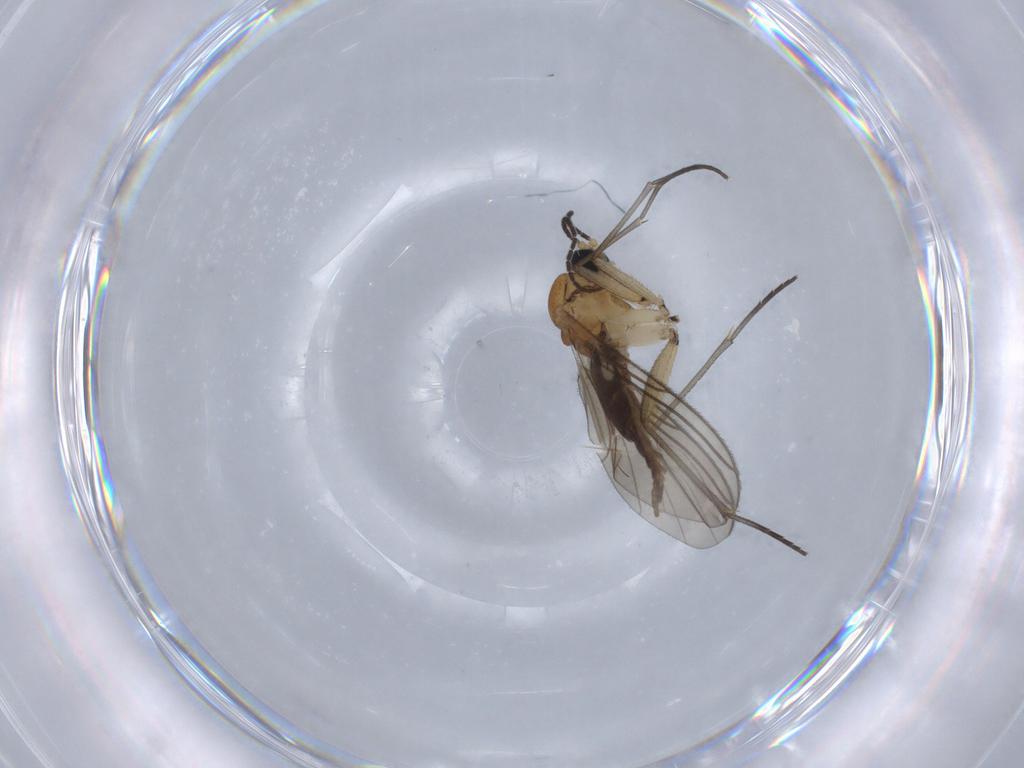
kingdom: Animalia
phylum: Arthropoda
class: Insecta
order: Diptera
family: Sciaridae
